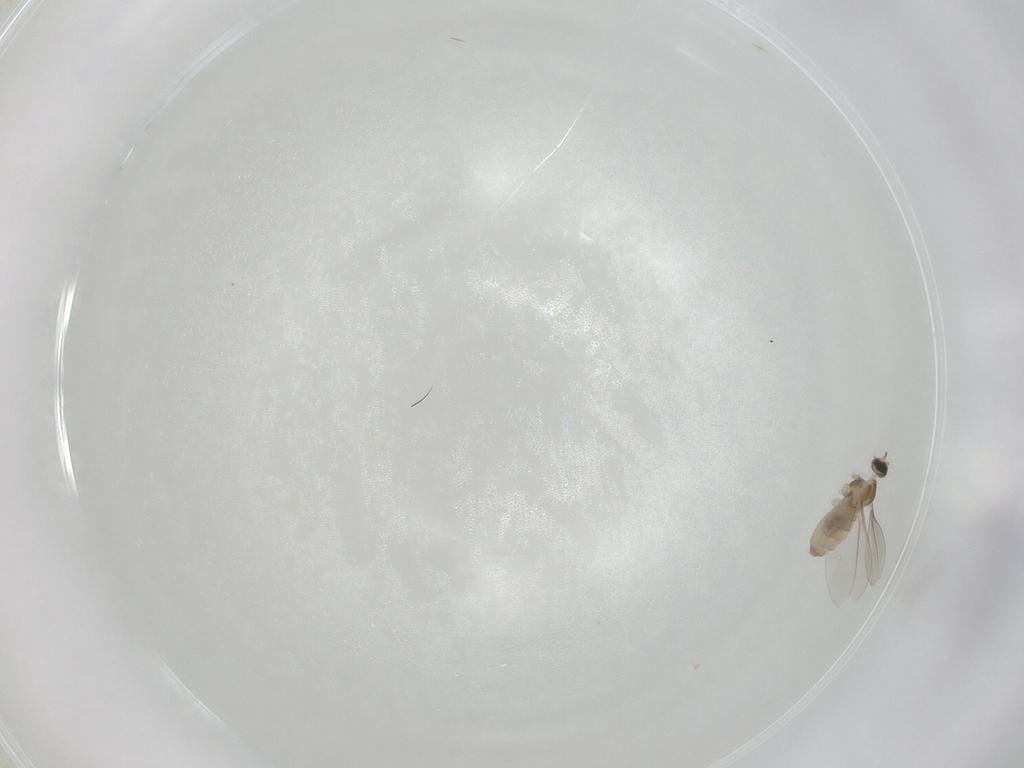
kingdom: Animalia
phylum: Arthropoda
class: Insecta
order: Diptera
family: Cecidomyiidae
